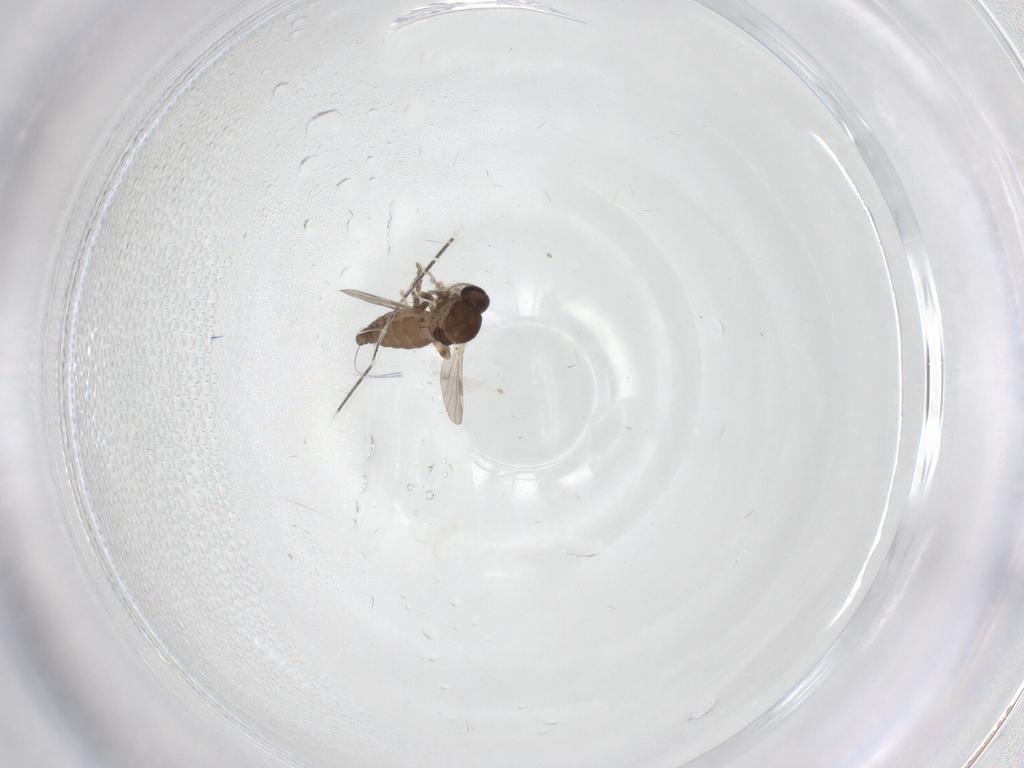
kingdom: Animalia
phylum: Arthropoda
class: Insecta
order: Diptera
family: Ceratopogonidae
